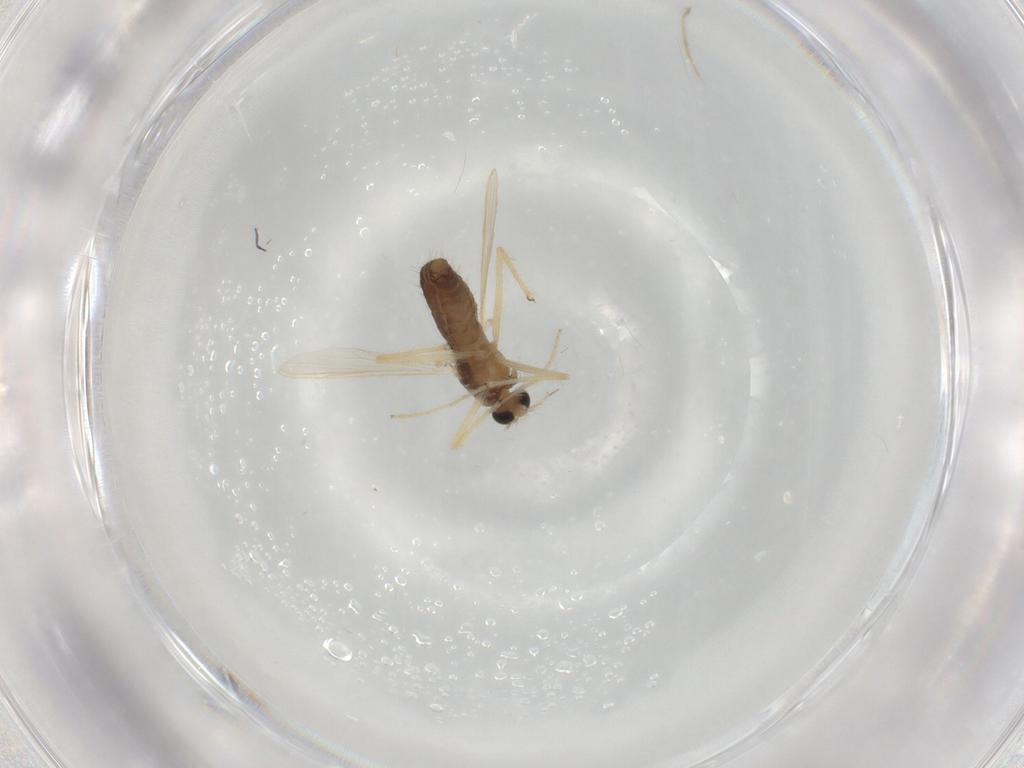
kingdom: Animalia
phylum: Arthropoda
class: Insecta
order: Diptera
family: Chironomidae
